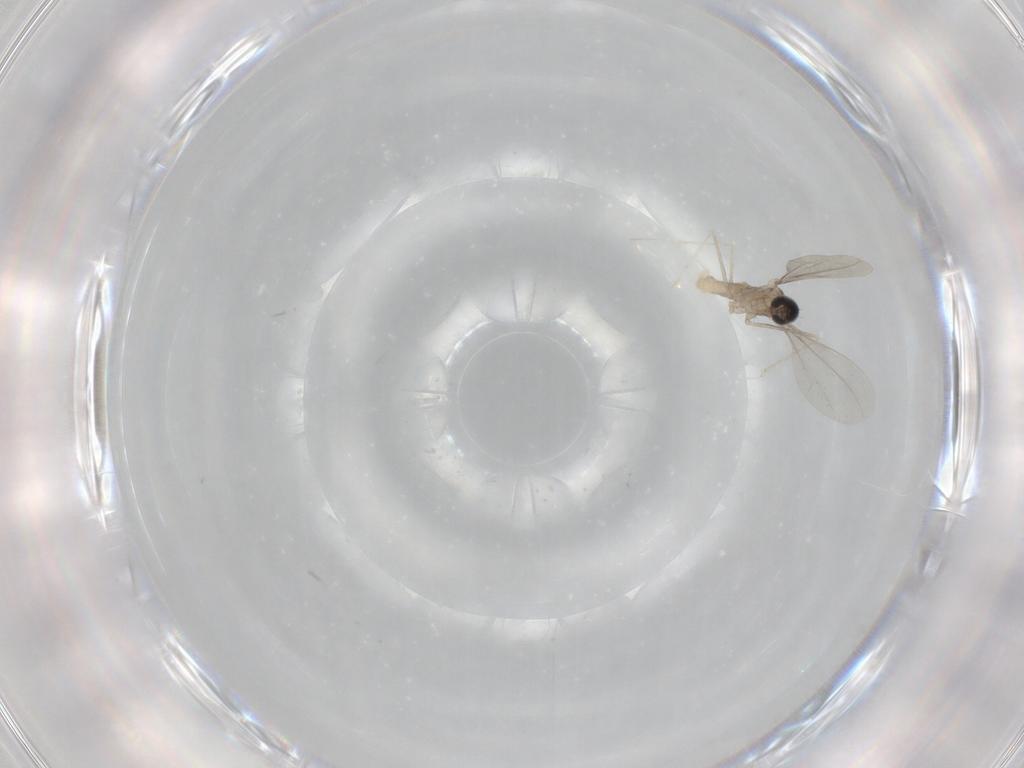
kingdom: Animalia
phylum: Arthropoda
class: Insecta
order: Diptera
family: Cecidomyiidae
